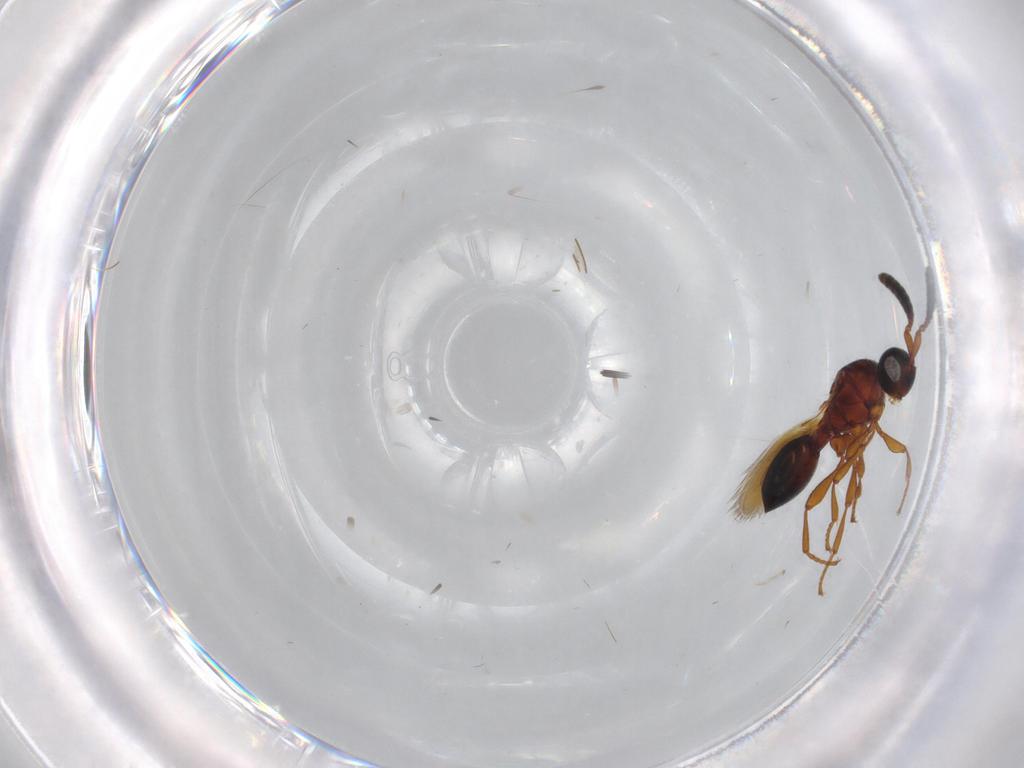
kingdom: Animalia
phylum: Arthropoda
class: Insecta
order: Hymenoptera
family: Diapriidae
